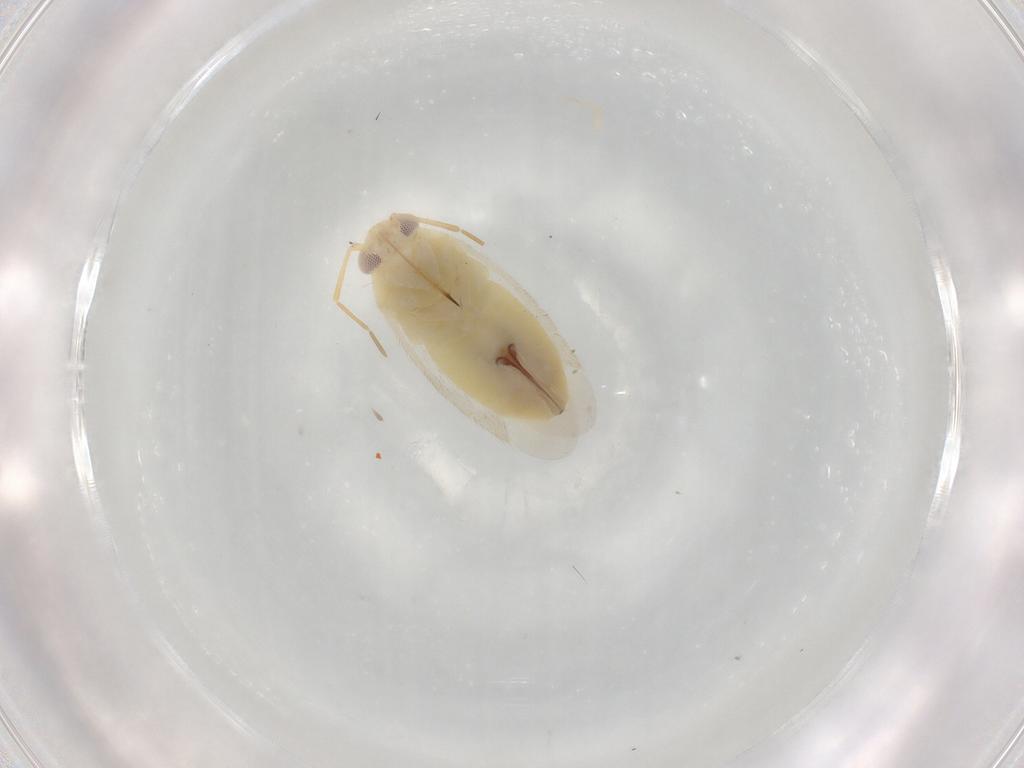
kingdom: Animalia
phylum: Arthropoda
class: Insecta
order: Hemiptera
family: Miridae
